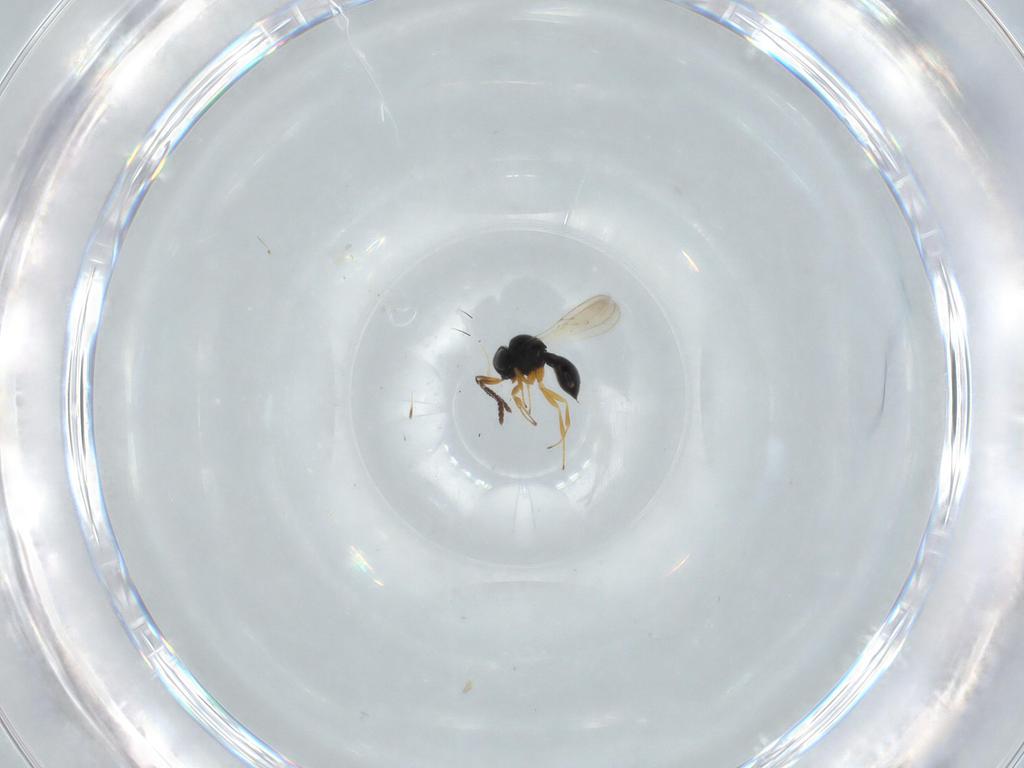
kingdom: Animalia
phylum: Arthropoda
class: Insecta
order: Hymenoptera
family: Scelionidae
